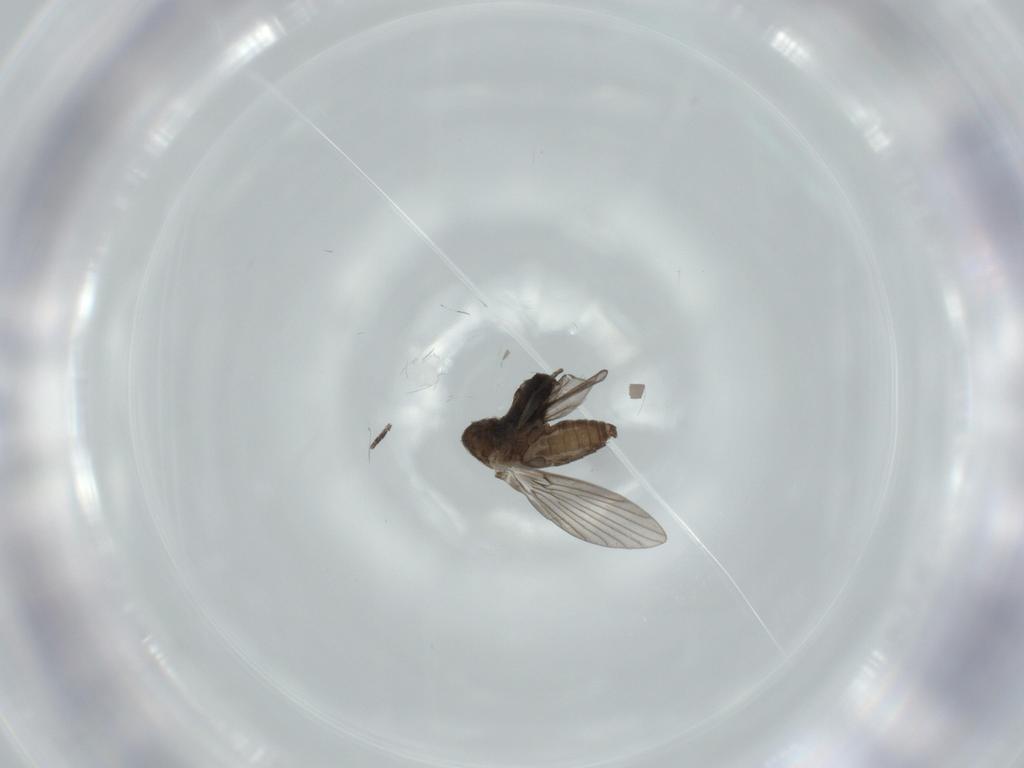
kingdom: Animalia
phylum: Arthropoda
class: Insecta
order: Diptera
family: Psychodidae
